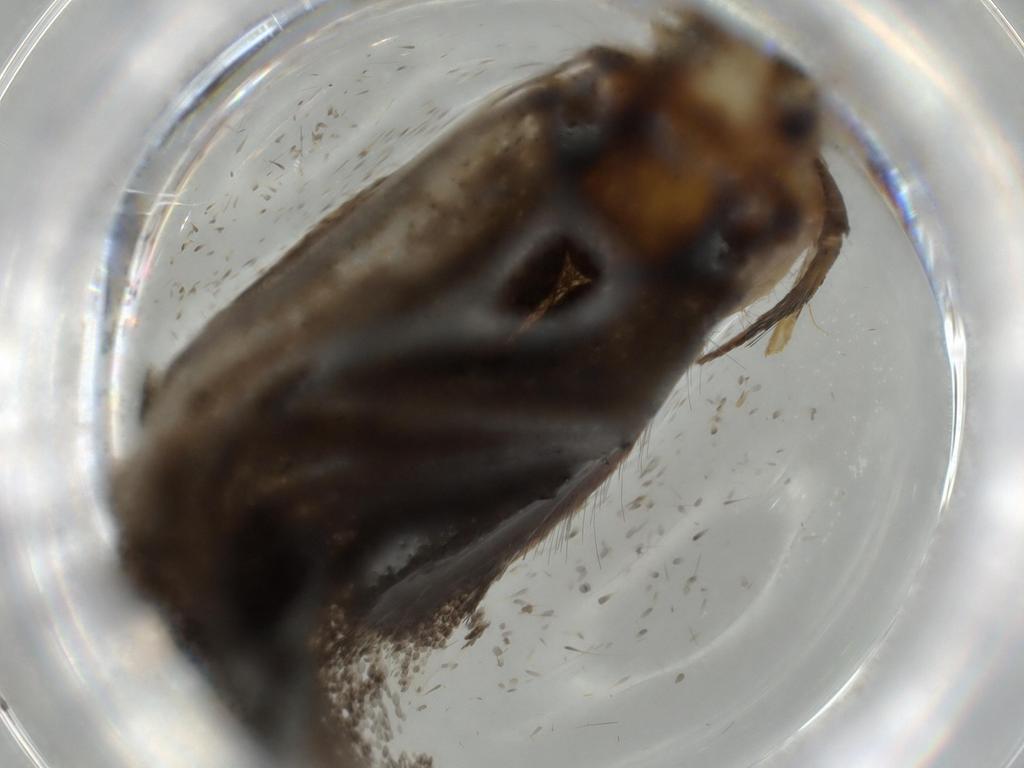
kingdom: Animalia
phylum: Arthropoda
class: Insecta
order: Lepidoptera
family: Tineidae
